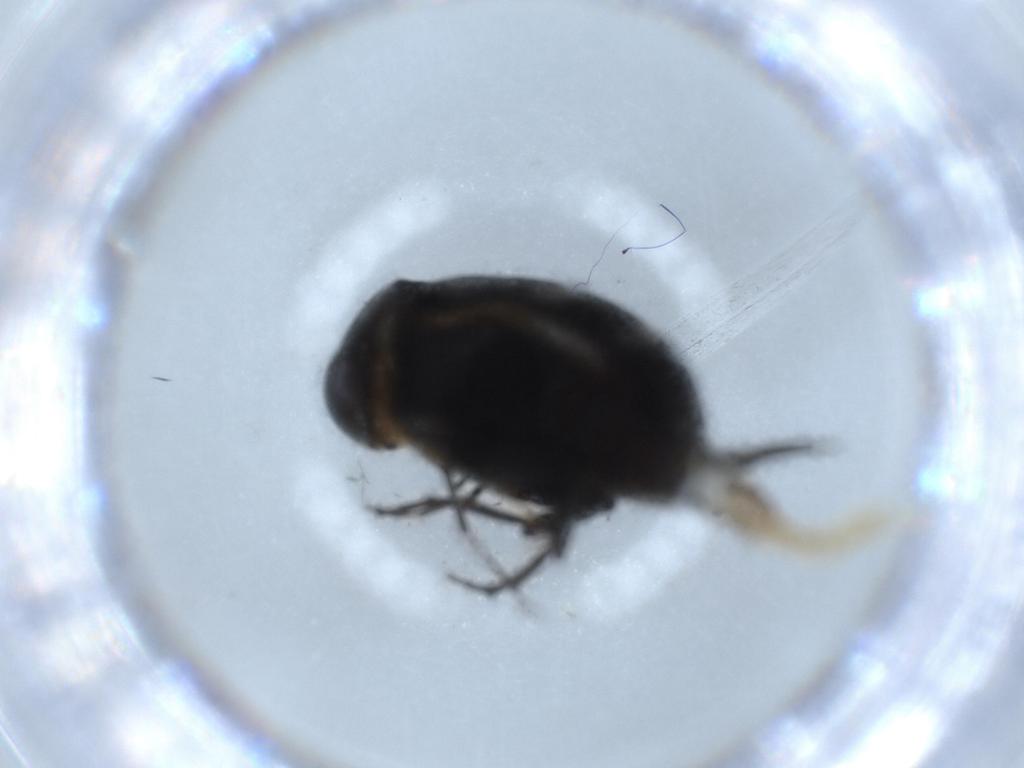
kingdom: Animalia
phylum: Arthropoda
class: Insecta
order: Coleoptera
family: Curculionidae
